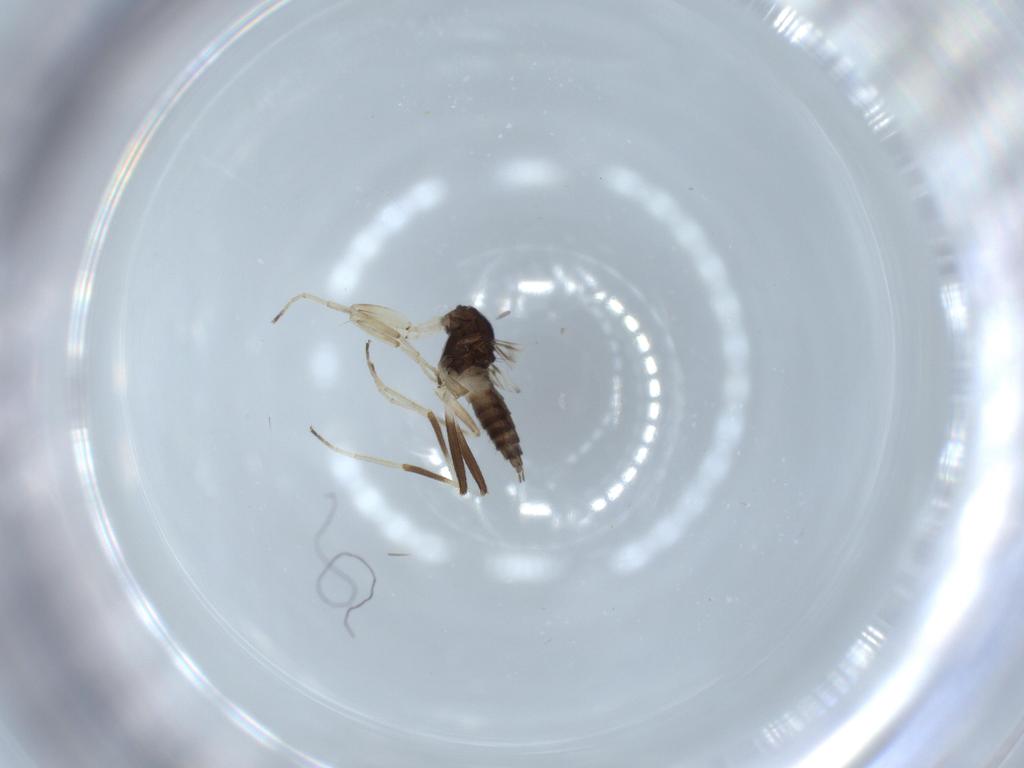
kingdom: Animalia
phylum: Arthropoda
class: Insecta
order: Diptera
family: Hybotidae
